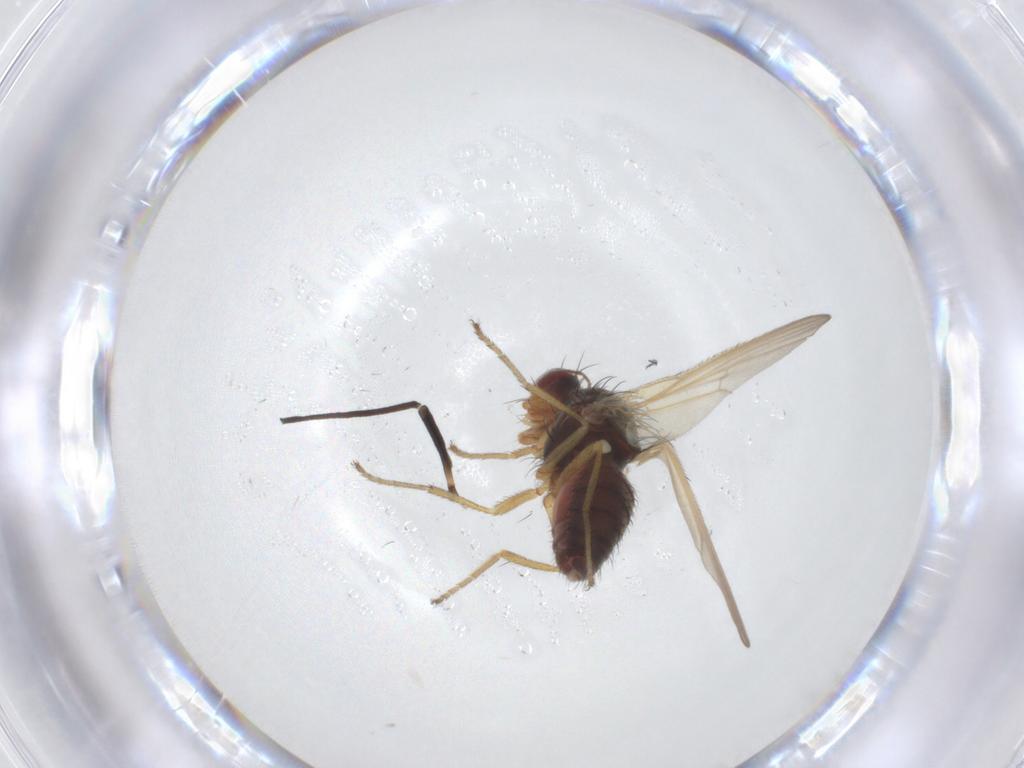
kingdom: Animalia
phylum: Arthropoda
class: Insecta
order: Diptera
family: Heleomyzidae
